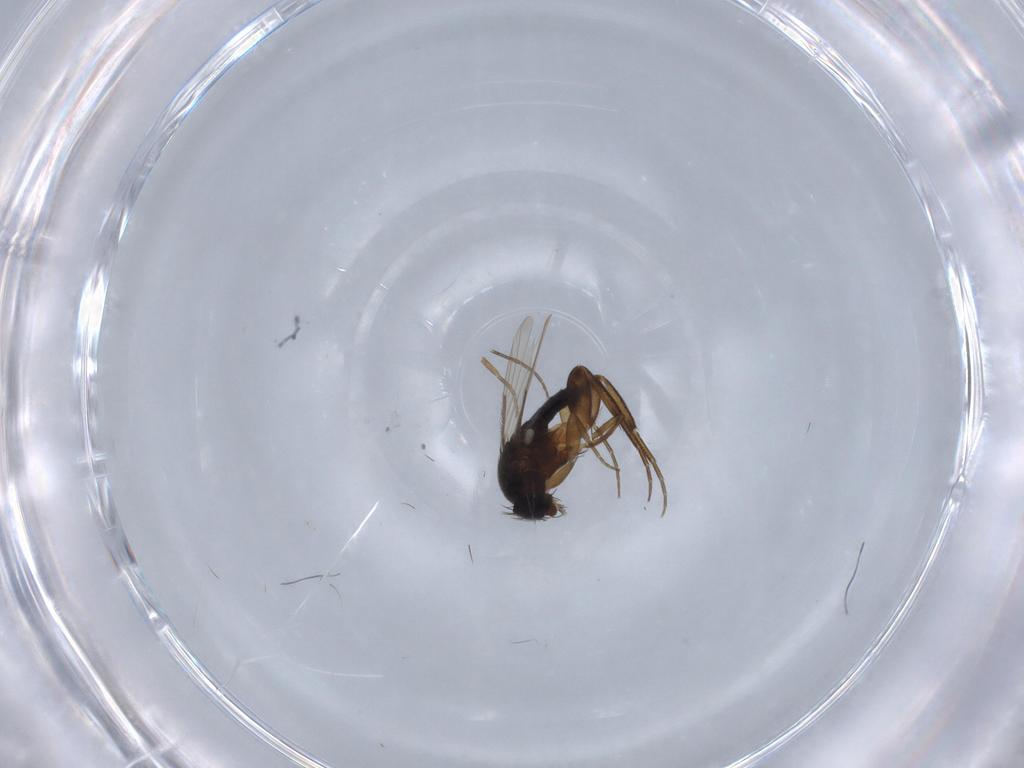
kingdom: Animalia
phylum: Arthropoda
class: Insecta
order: Diptera
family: Phoridae
